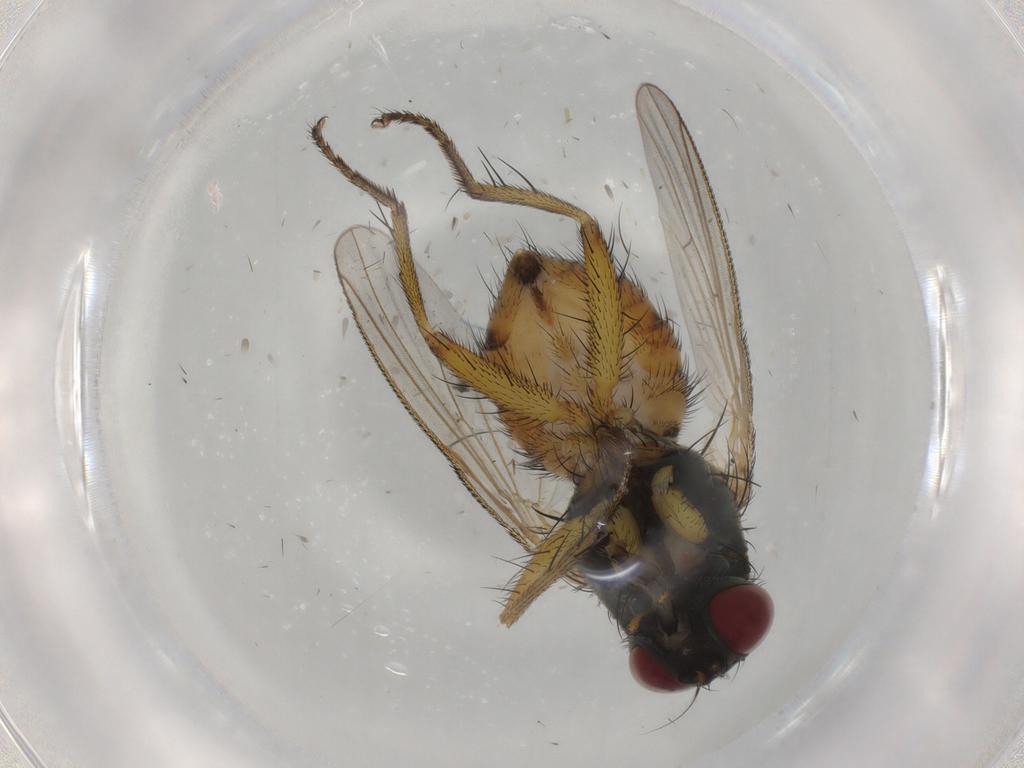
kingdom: Animalia
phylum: Arthropoda
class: Insecta
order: Diptera
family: Muscidae
